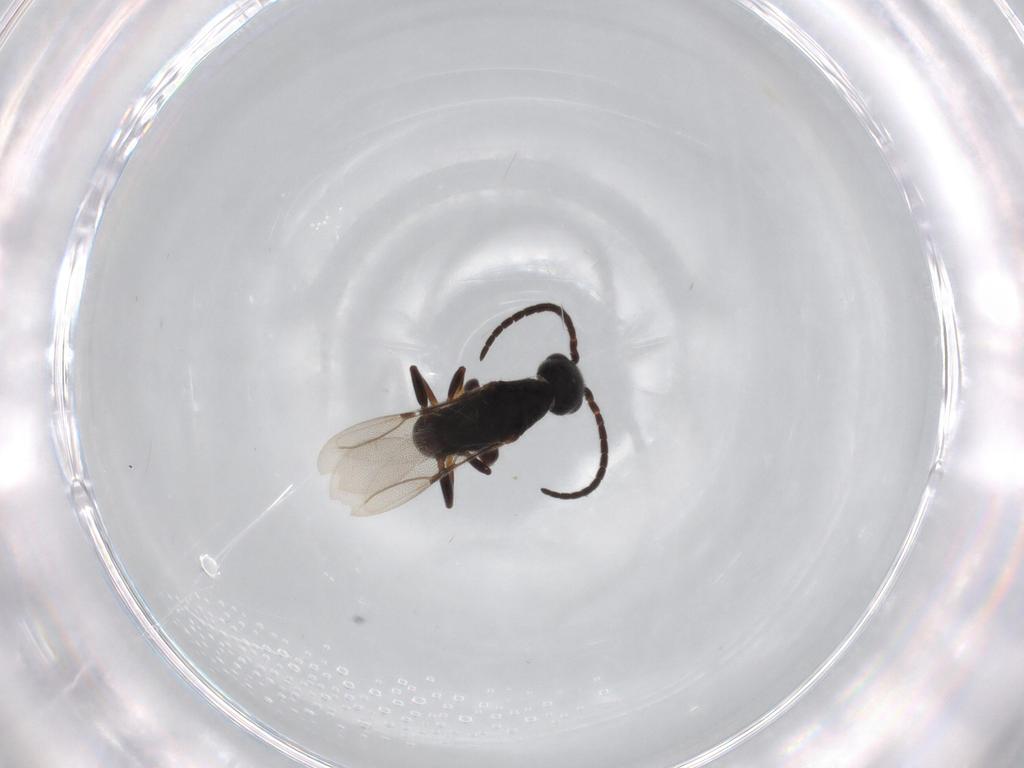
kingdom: Animalia
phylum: Arthropoda
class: Insecta
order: Hymenoptera
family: Bethylidae
